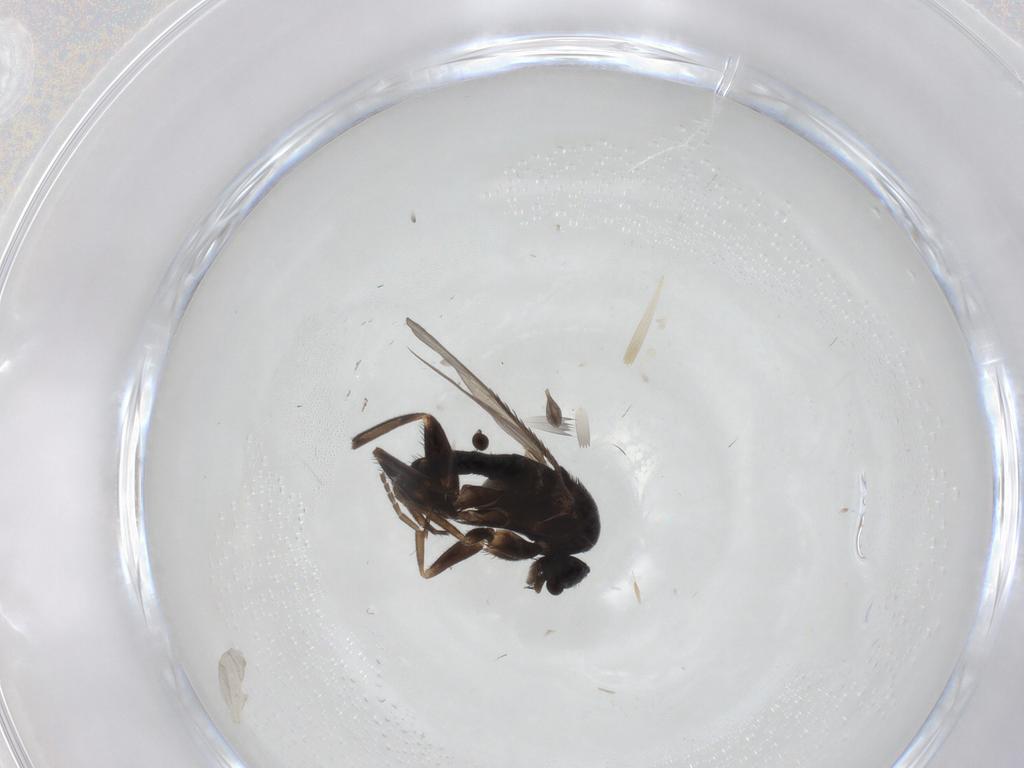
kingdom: Animalia
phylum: Arthropoda
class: Insecta
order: Diptera
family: Phoridae
